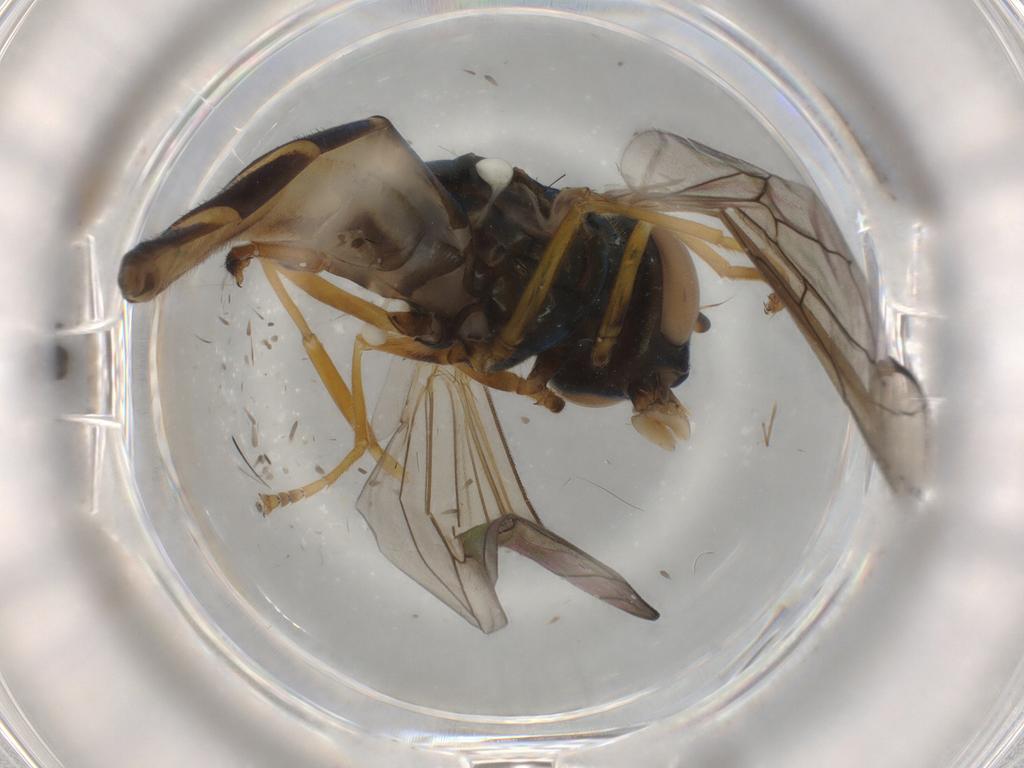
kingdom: Animalia
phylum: Arthropoda
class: Insecta
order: Diptera
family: Syrphidae
